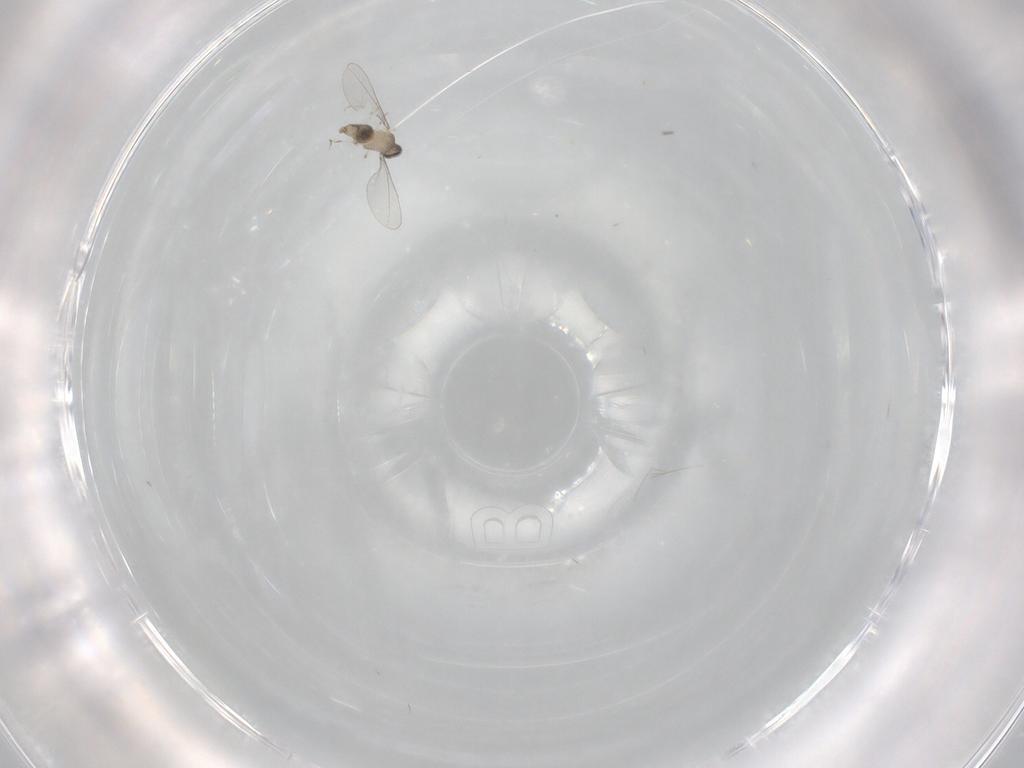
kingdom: Animalia
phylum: Arthropoda
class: Insecta
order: Diptera
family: Cecidomyiidae
